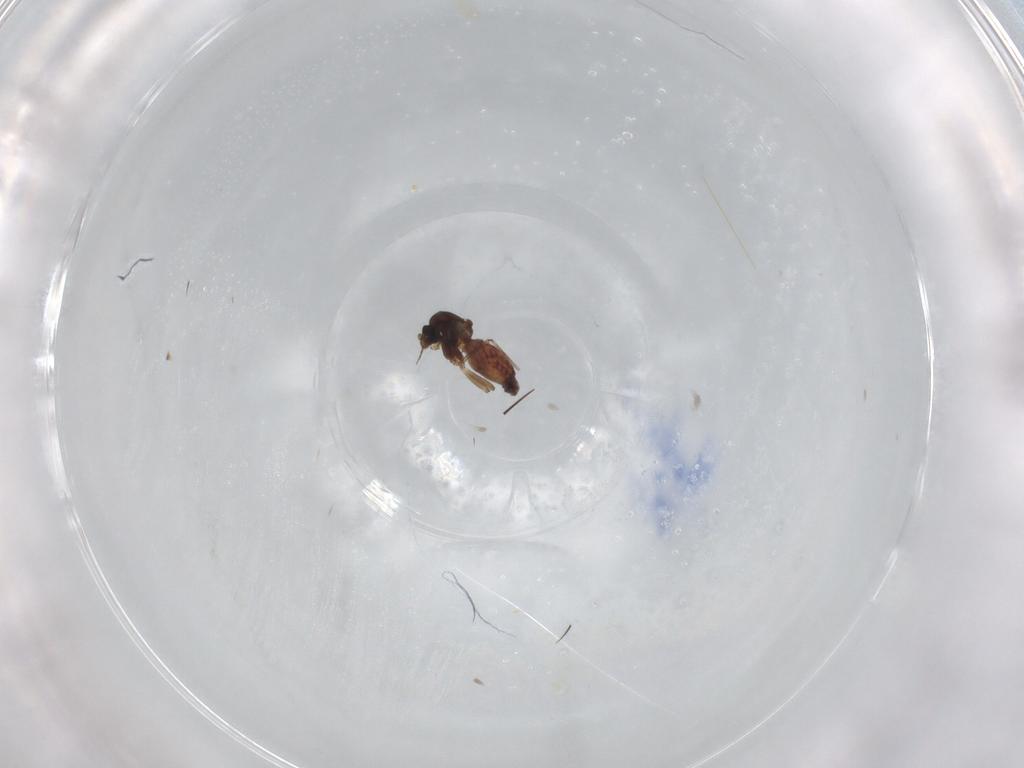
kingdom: Animalia
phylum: Arthropoda
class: Insecta
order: Diptera
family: Ceratopogonidae
